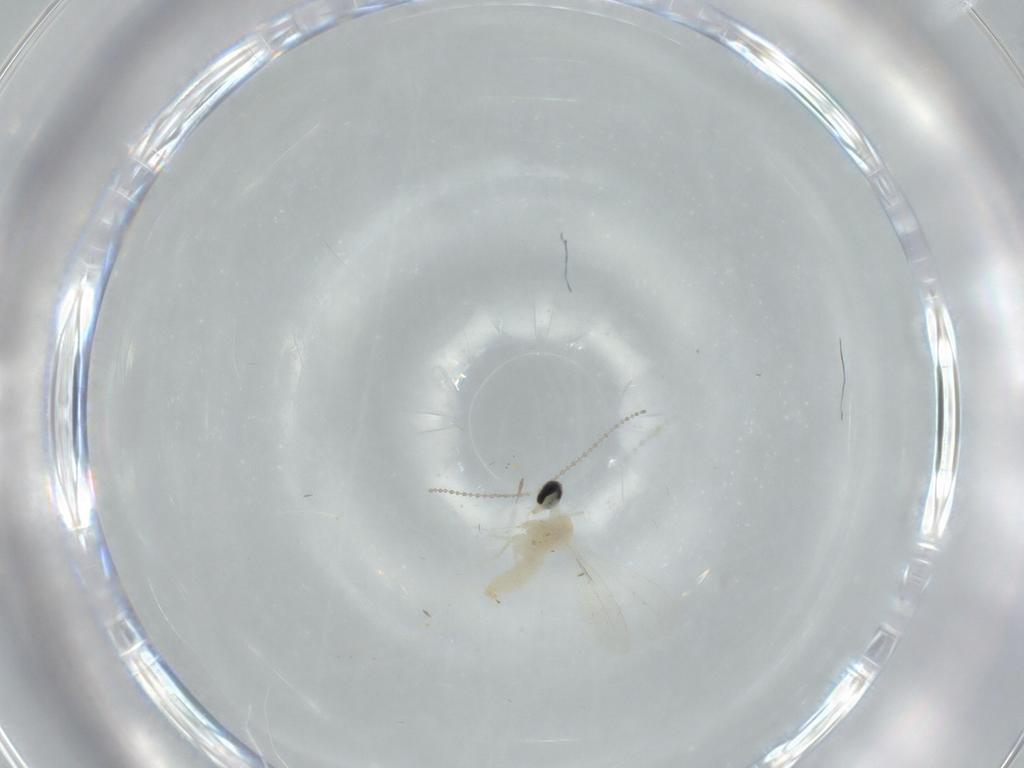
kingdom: Animalia
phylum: Arthropoda
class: Insecta
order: Diptera
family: Cecidomyiidae
